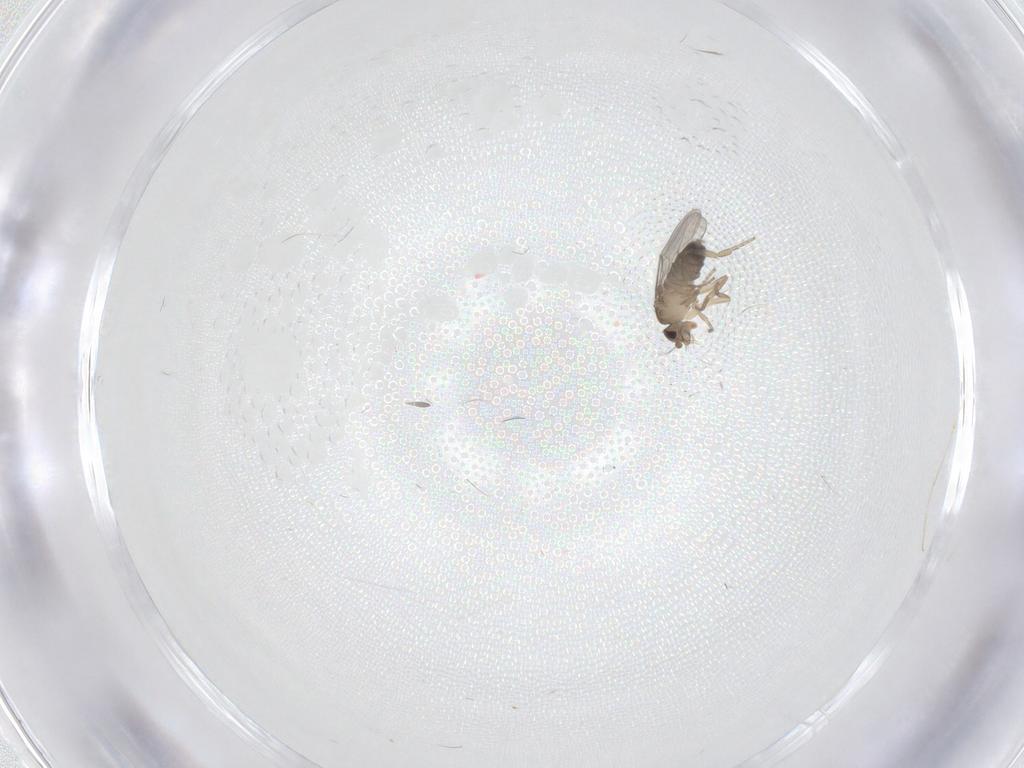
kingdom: Animalia
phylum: Arthropoda
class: Insecta
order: Diptera
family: Cecidomyiidae
